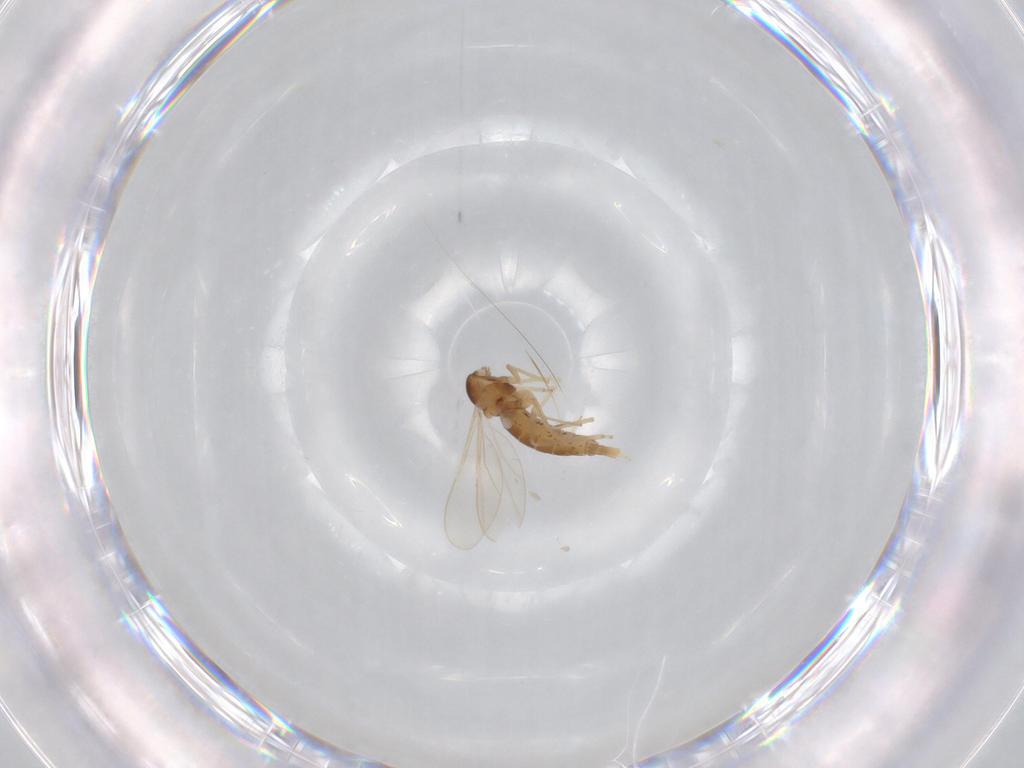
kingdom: Animalia
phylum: Arthropoda
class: Insecta
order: Diptera
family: Cecidomyiidae
